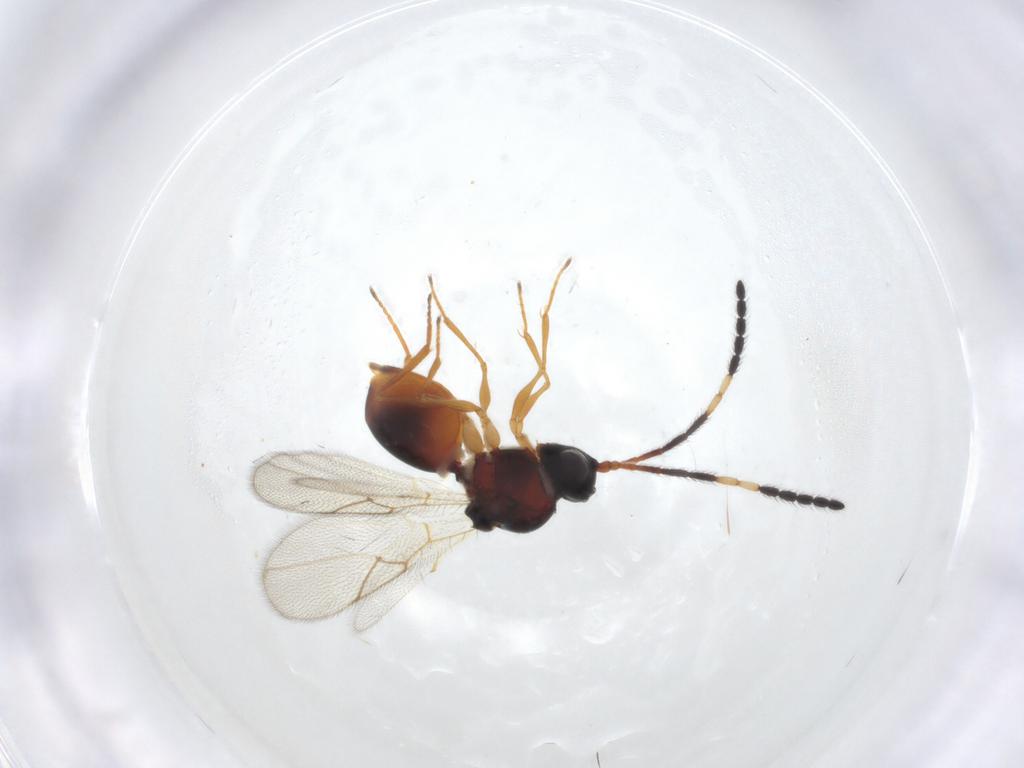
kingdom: Animalia
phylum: Arthropoda
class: Insecta
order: Hymenoptera
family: Figitidae
